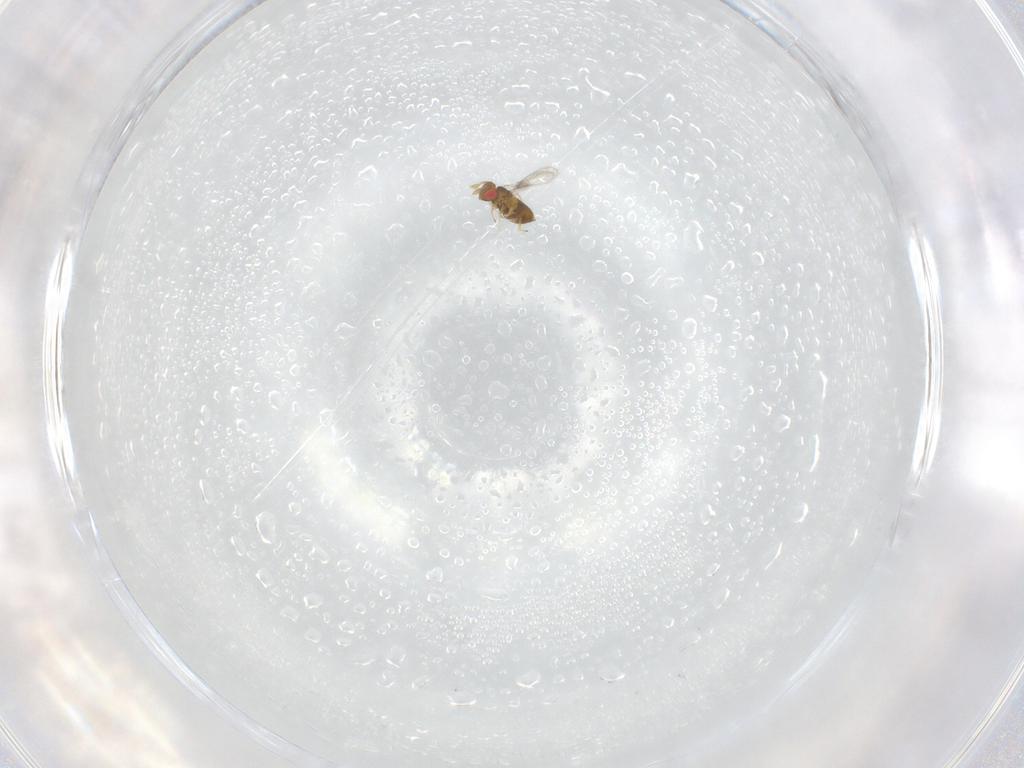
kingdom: Animalia
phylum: Arthropoda
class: Insecta
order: Hymenoptera
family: Trichogrammatidae
